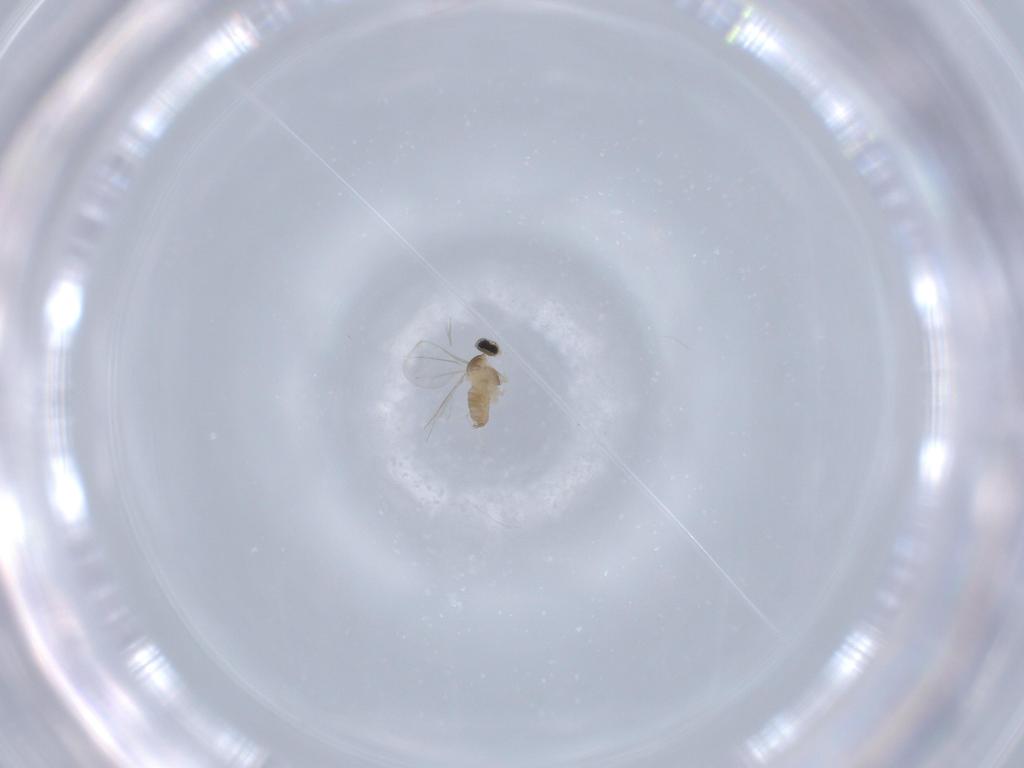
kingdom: Animalia
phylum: Arthropoda
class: Insecta
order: Diptera
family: Cecidomyiidae
